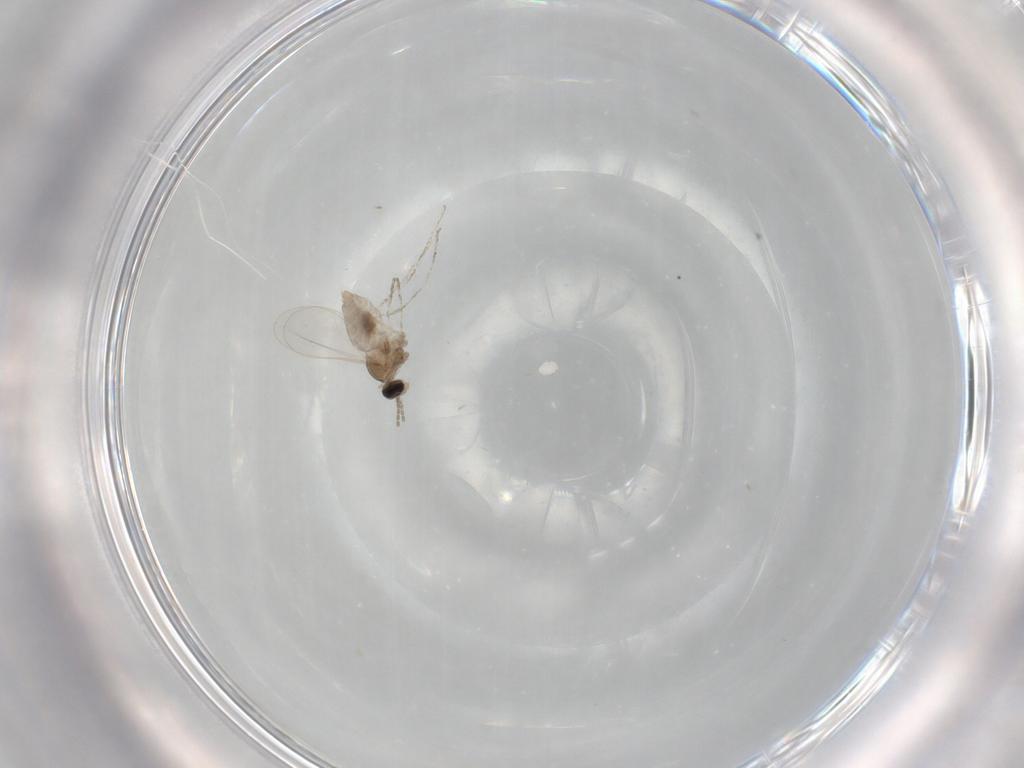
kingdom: Animalia
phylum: Arthropoda
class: Insecta
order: Diptera
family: Cecidomyiidae
